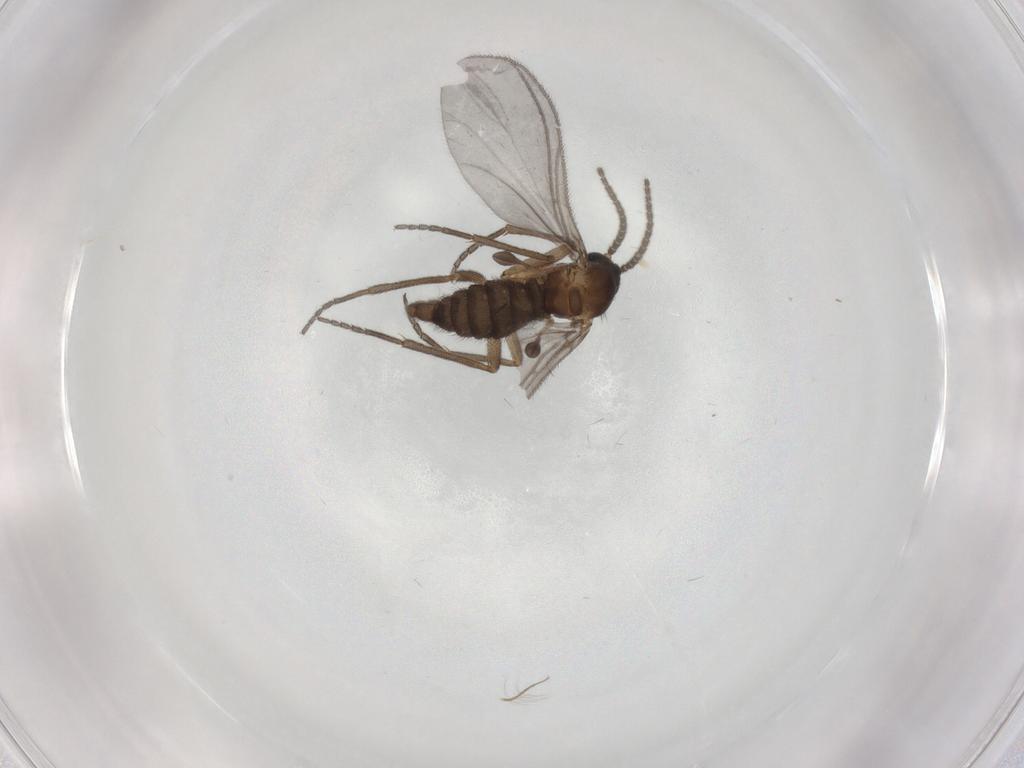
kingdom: Animalia
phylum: Arthropoda
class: Insecta
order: Diptera
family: Sciaridae
